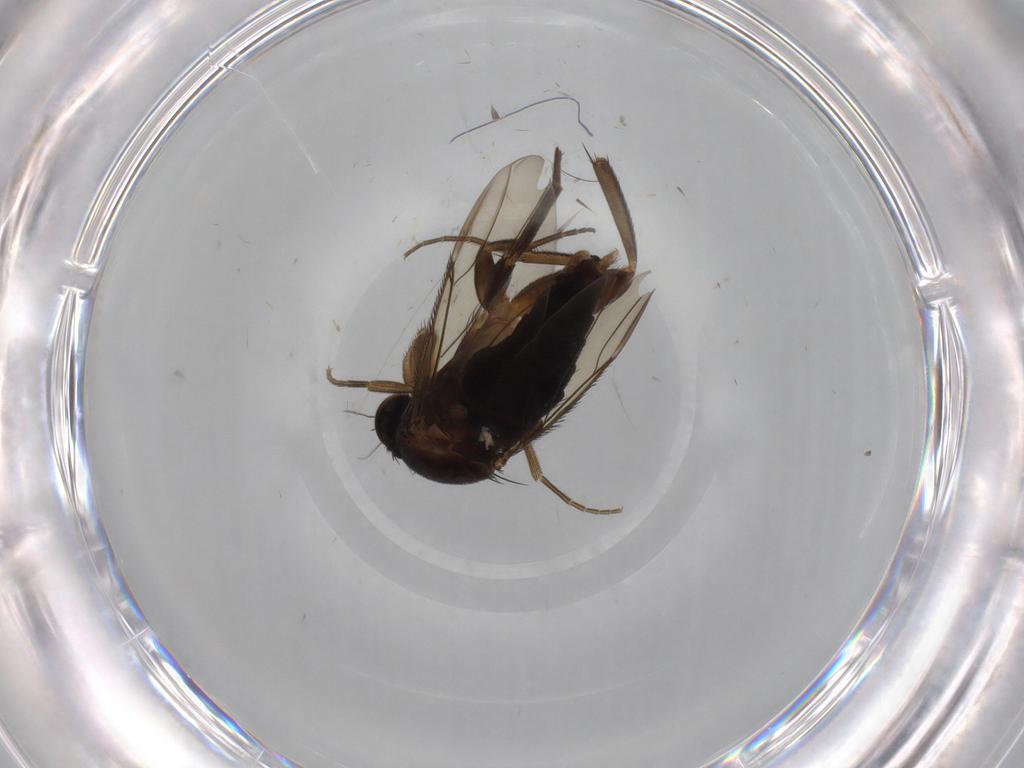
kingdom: Animalia
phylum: Arthropoda
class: Insecta
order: Diptera
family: Phoridae
